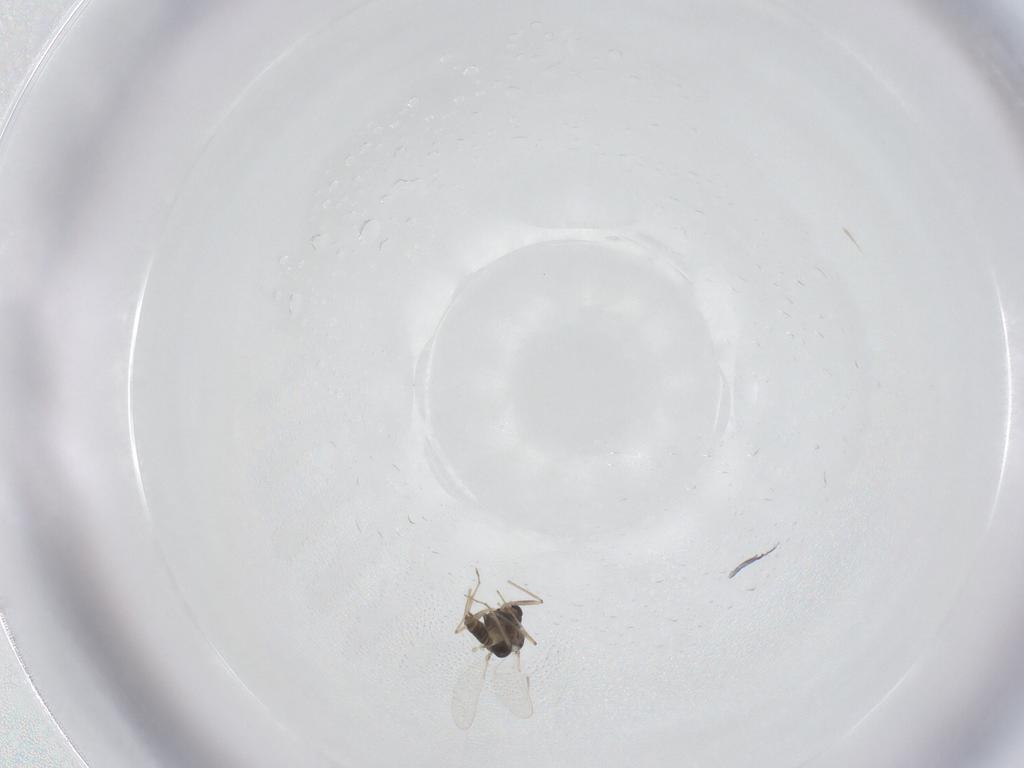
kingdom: Animalia
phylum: Arthropoda
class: Insecta
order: Diptera
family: Chironomidae
